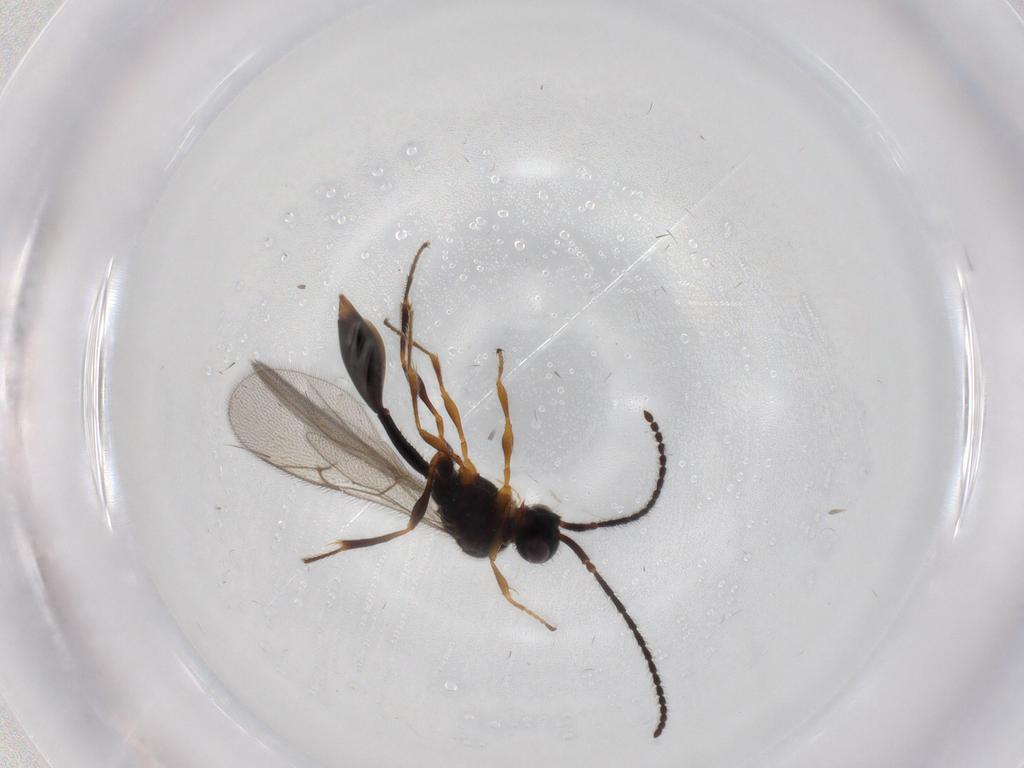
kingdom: Animalia
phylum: Arthropoda
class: Insecta
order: Hymenoptera
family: Diapriidae
